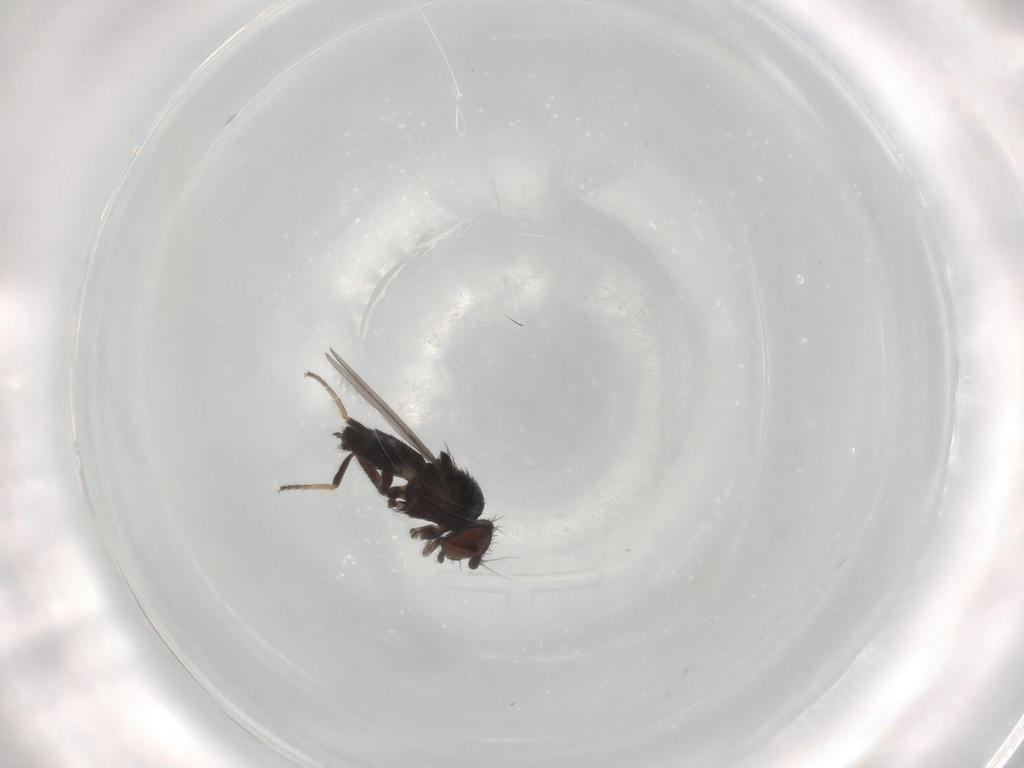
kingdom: Animalia
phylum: Arthropoda
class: Insecta
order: Diptera
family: Milichiidae
